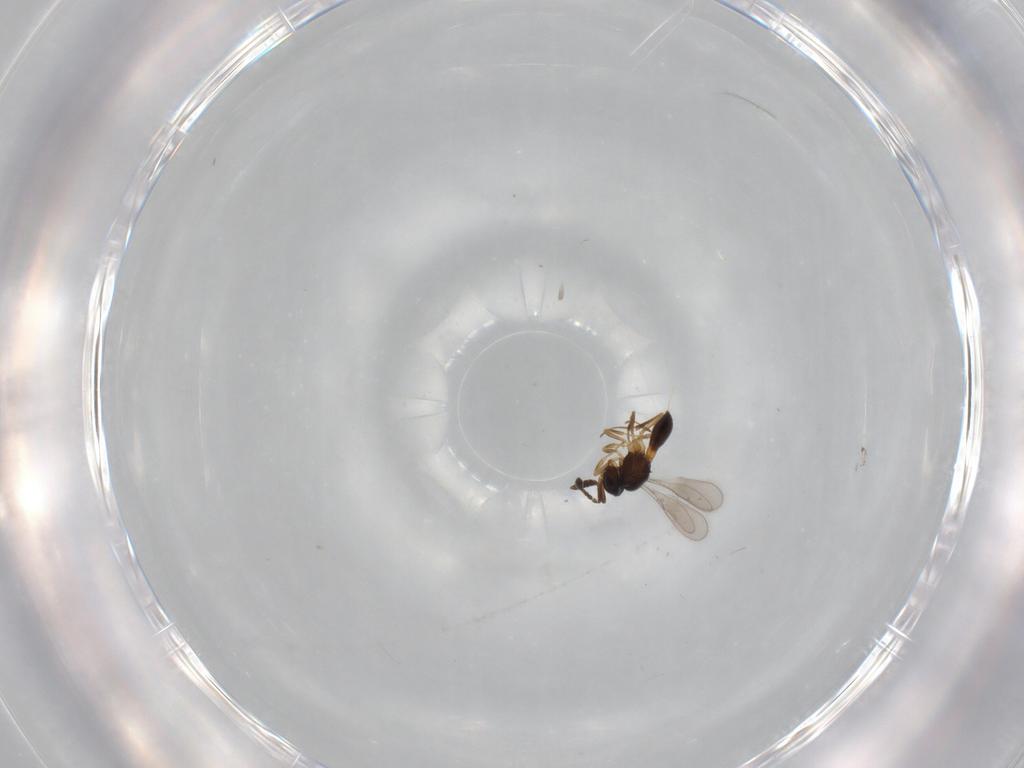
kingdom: Animalia
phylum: Arthropoda
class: Insecta
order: Hymenoptera
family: Scelionidae
